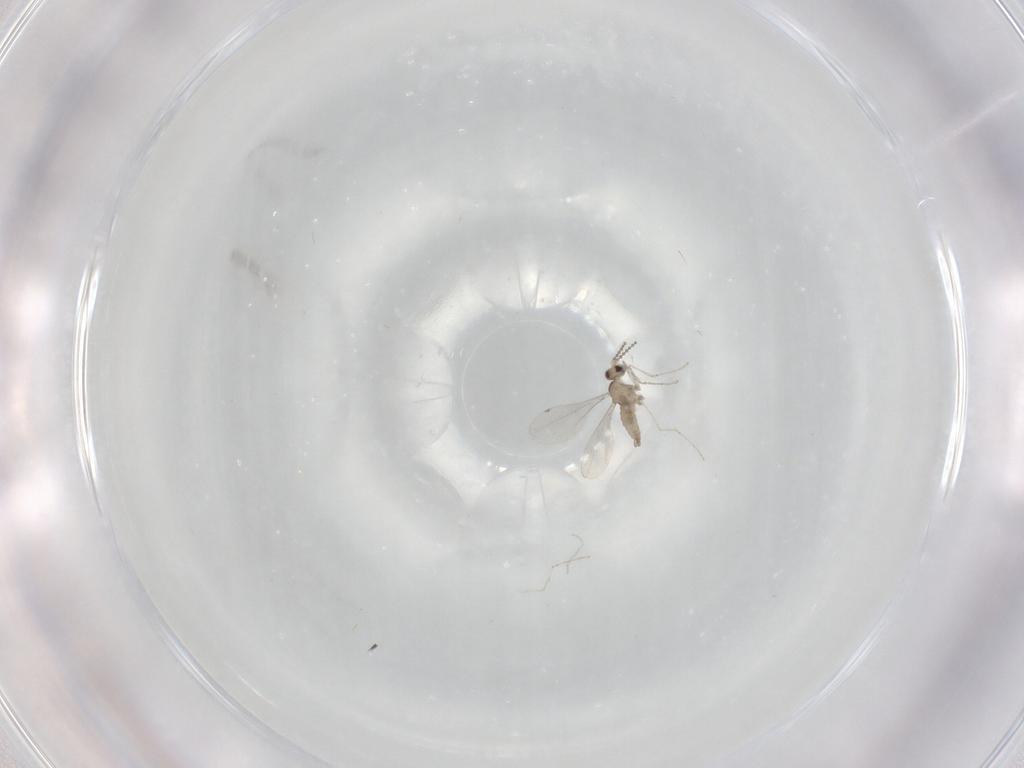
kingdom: Animalia
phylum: Arthropoda
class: Insecta
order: Diptera
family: Cecidomyiidae
